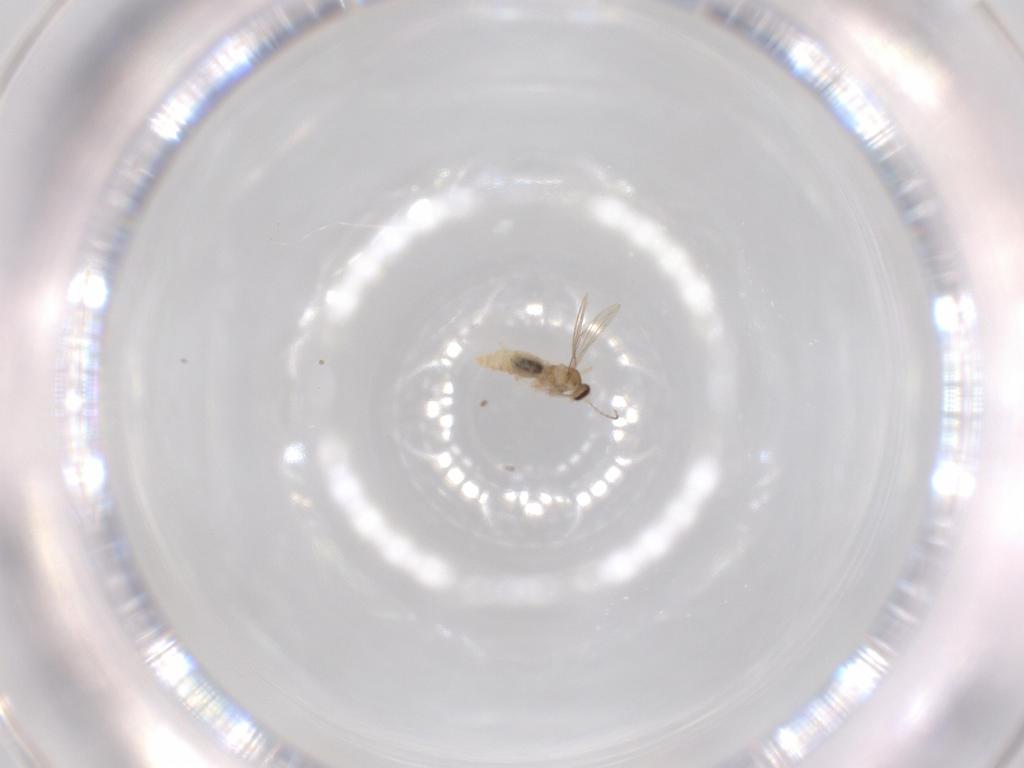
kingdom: Animalia
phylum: Arthropoda
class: Insecta
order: Diptera
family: Cecidomyiidae
